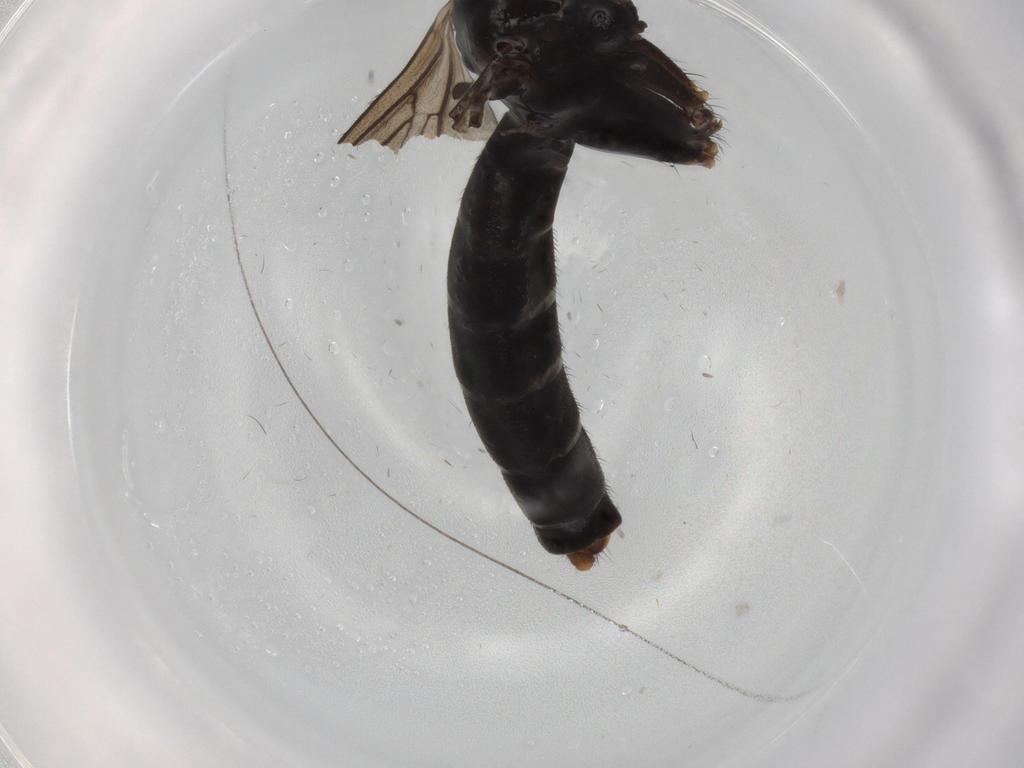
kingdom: Animalia
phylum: Arthropoda
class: Insecta
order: Diptera
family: Ditomyiidae
